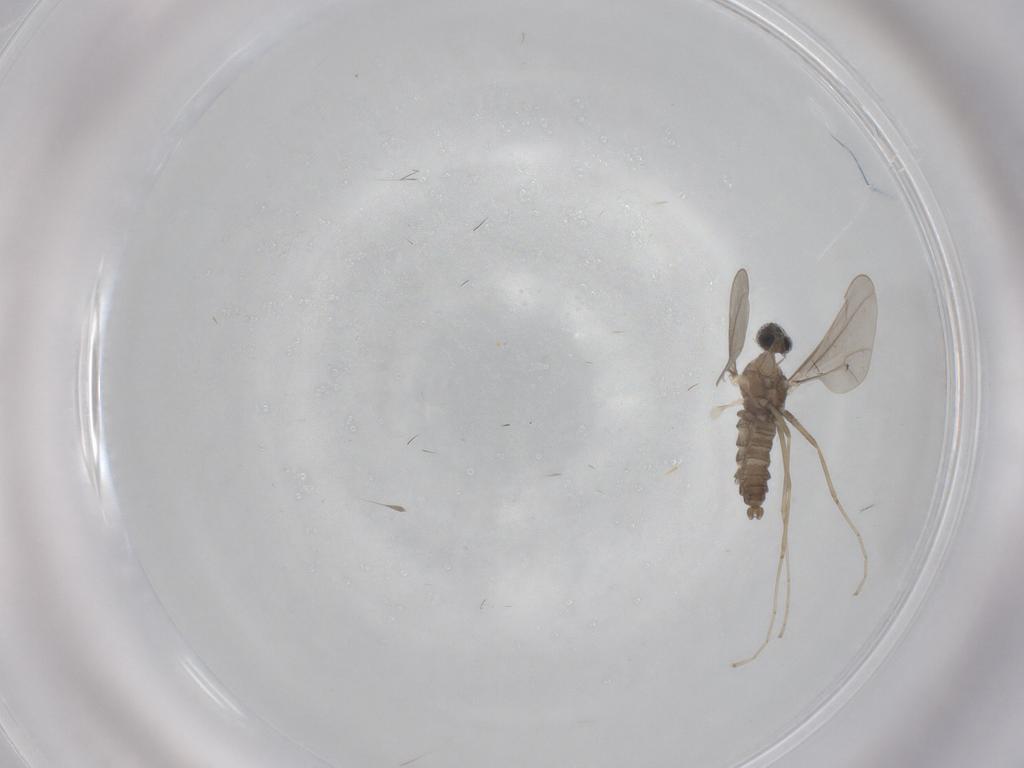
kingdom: Animalia
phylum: Arthropoda
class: Insecta
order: Diptera
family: Cecidomyiidae
